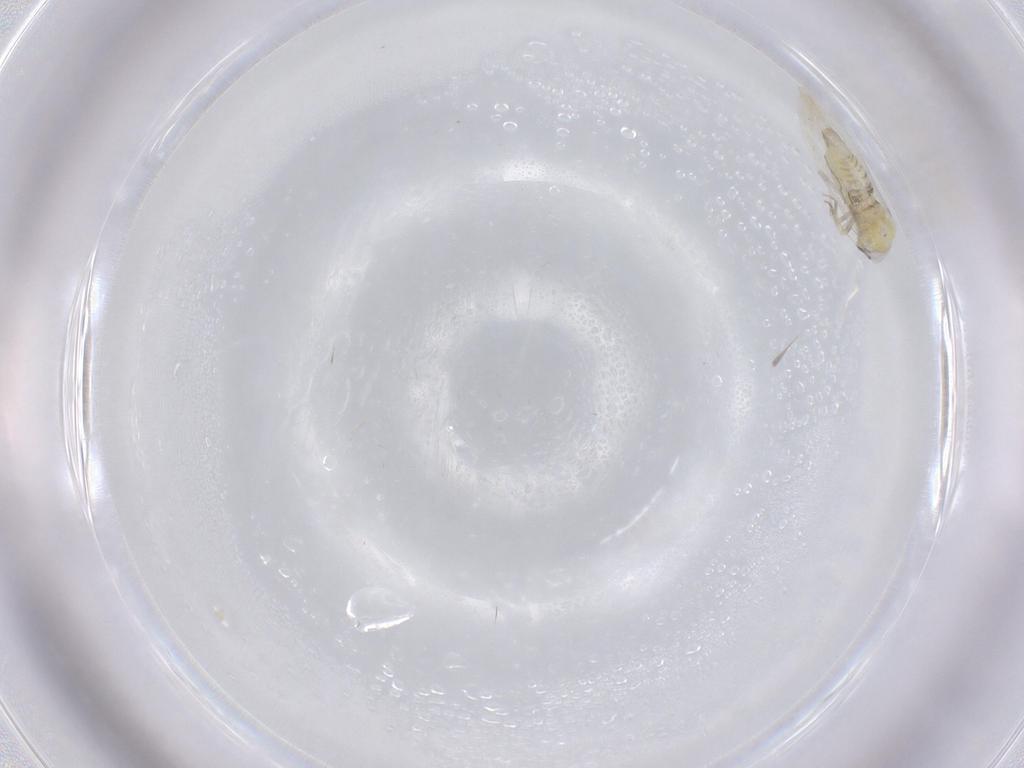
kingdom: Animalia
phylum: Arthropoda
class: Insecta
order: Hemiptera
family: Aleyrodidae
